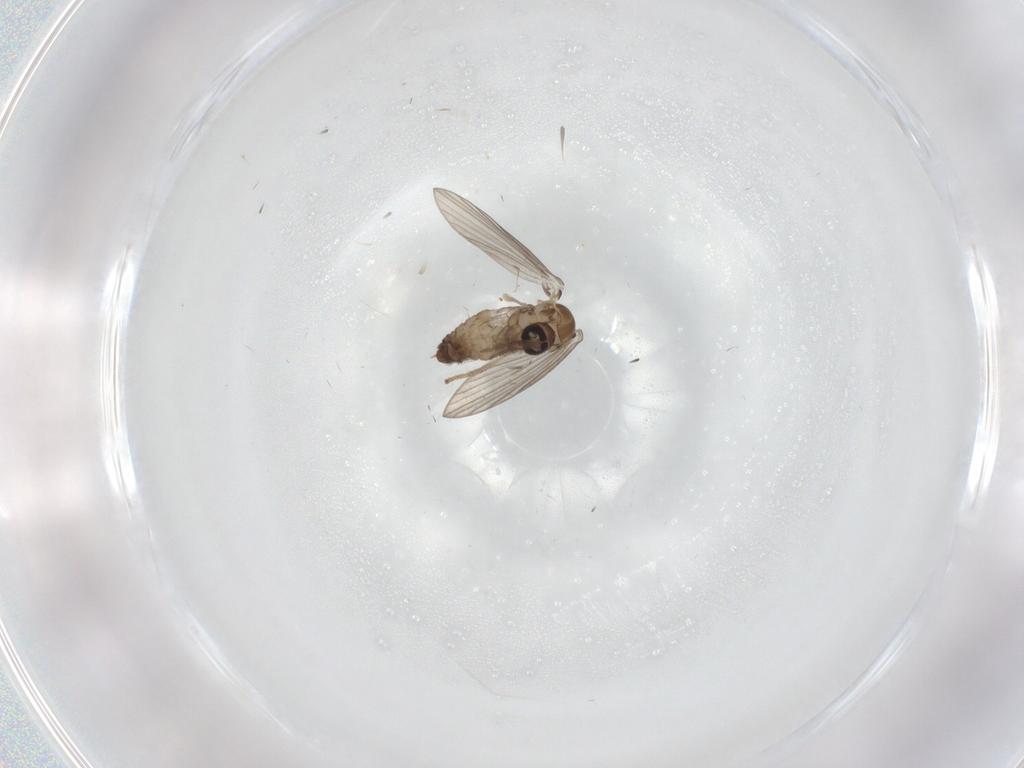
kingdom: Animalia
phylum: Arthropoda
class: Insecta
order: Diptera
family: Psychodidae
